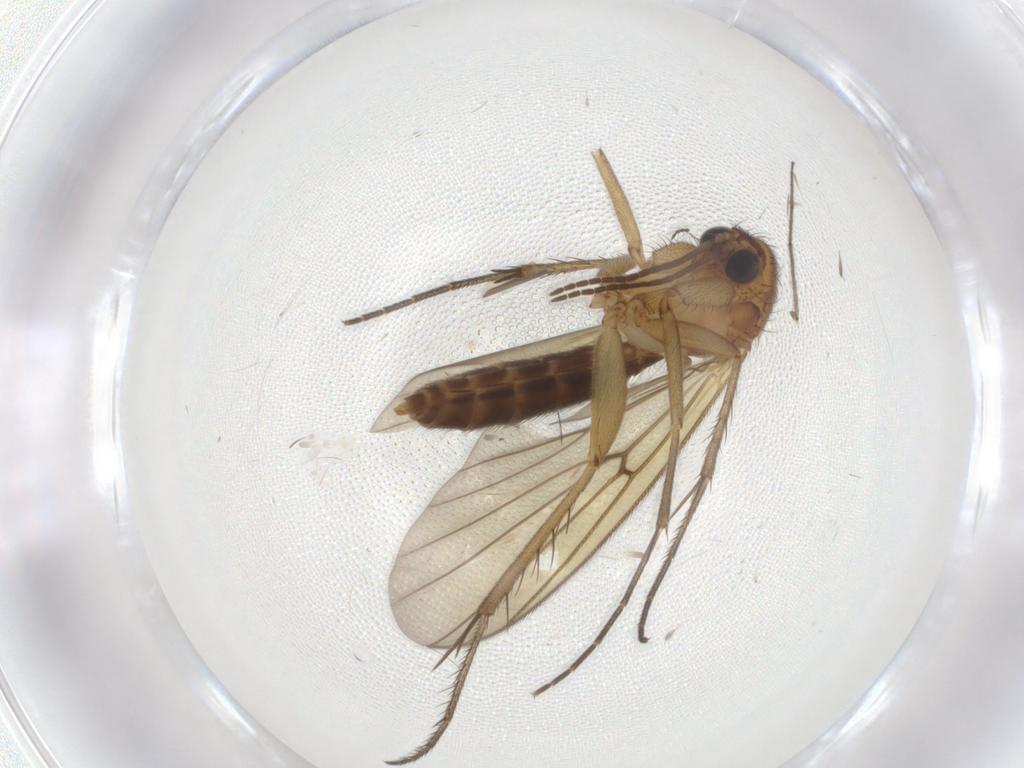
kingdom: Animalia
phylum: Arthropoda
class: Insecta
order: Diptera
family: Mycetophilidae
